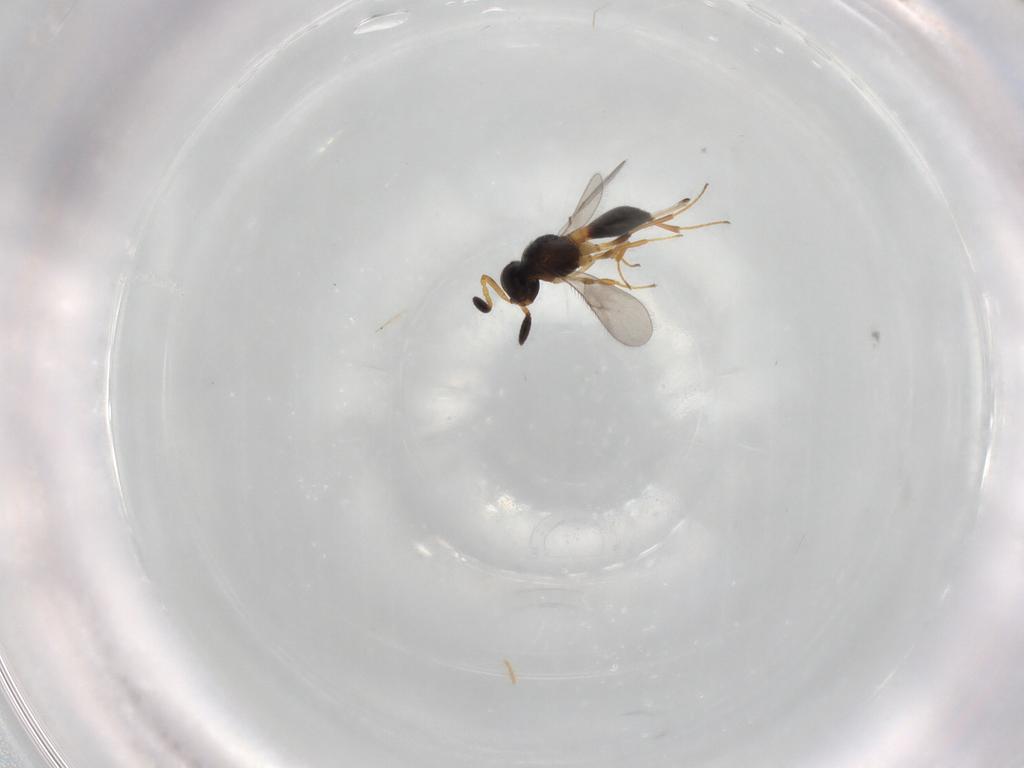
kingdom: Animalia
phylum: Arthropoda
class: Insecta
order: Hymenoptera
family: Scelionidae
